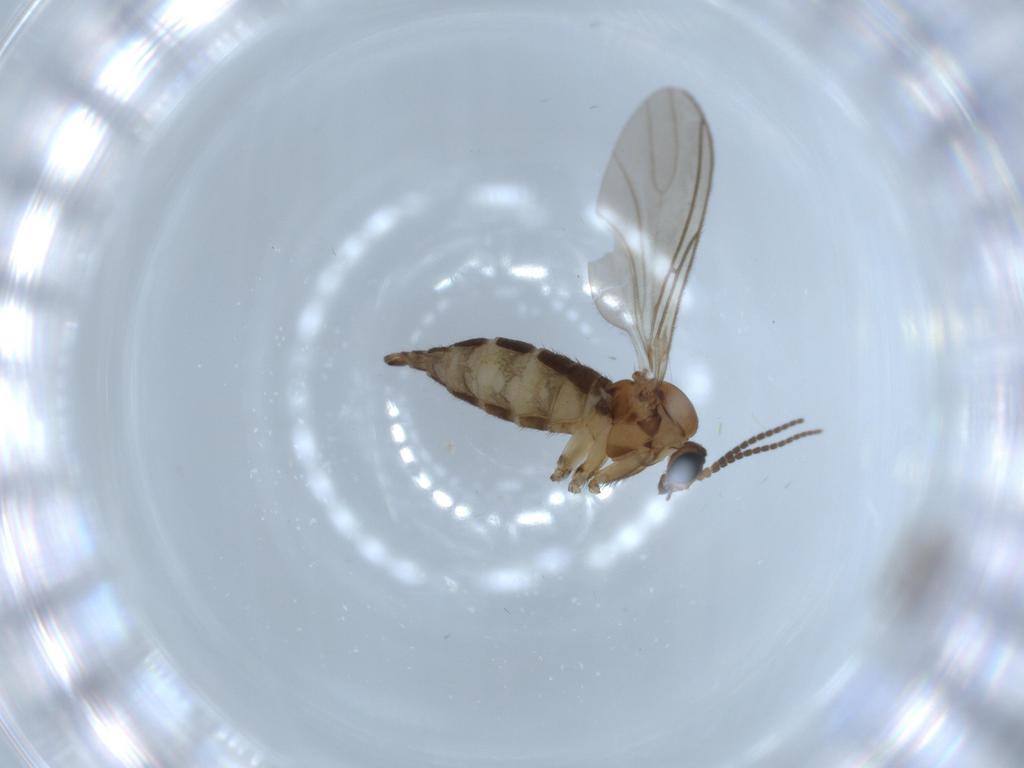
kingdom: Animalia
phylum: Arthropoda
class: Insecta
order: Diptera
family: Sciaridae
